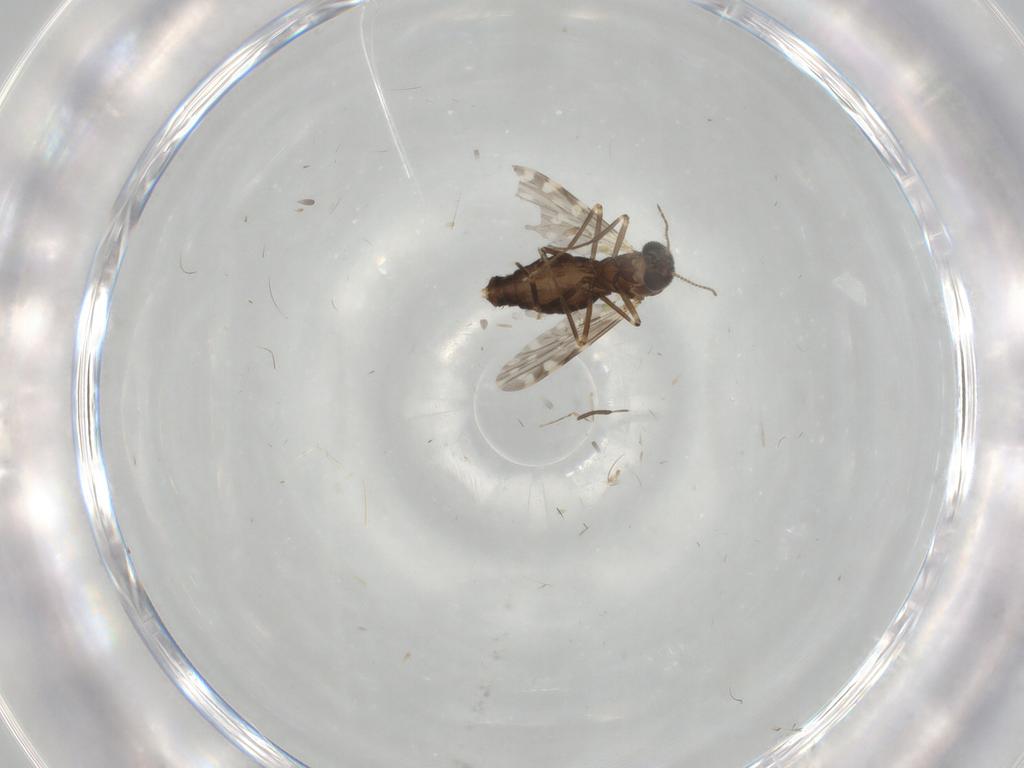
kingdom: Animalia
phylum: Arthropoda
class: Insecta
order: Diptera
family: Ceratopogonidae
